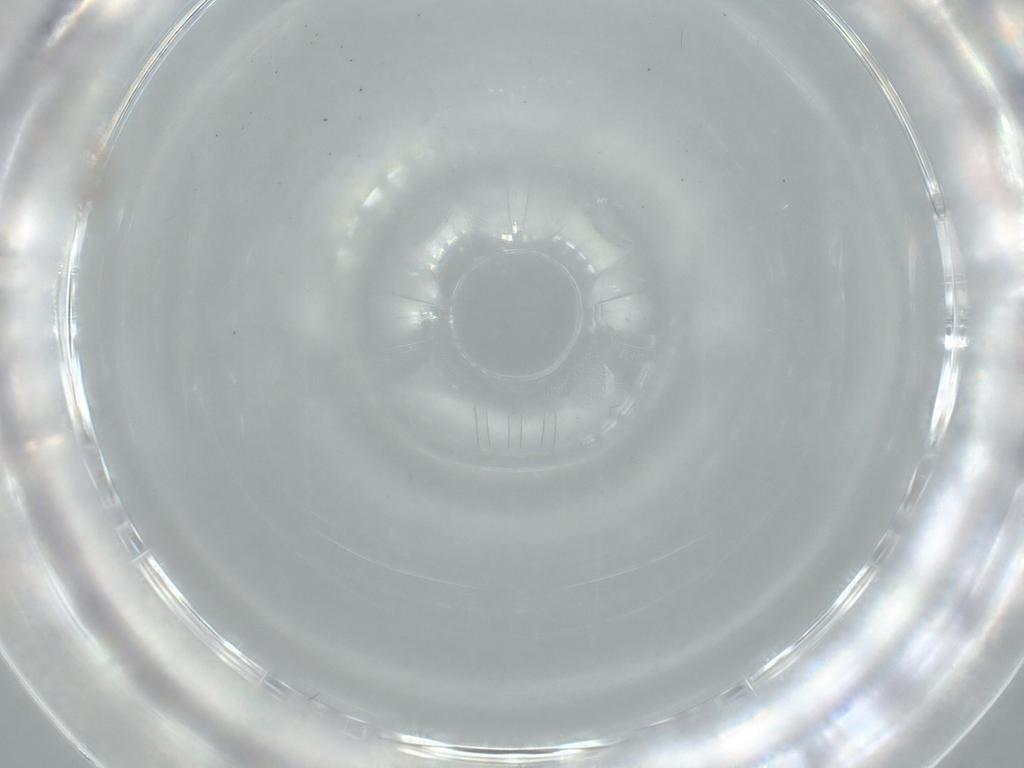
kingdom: Animalia
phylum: Arthropoda
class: Insecta
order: Diptera
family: Cecidomyiidae
